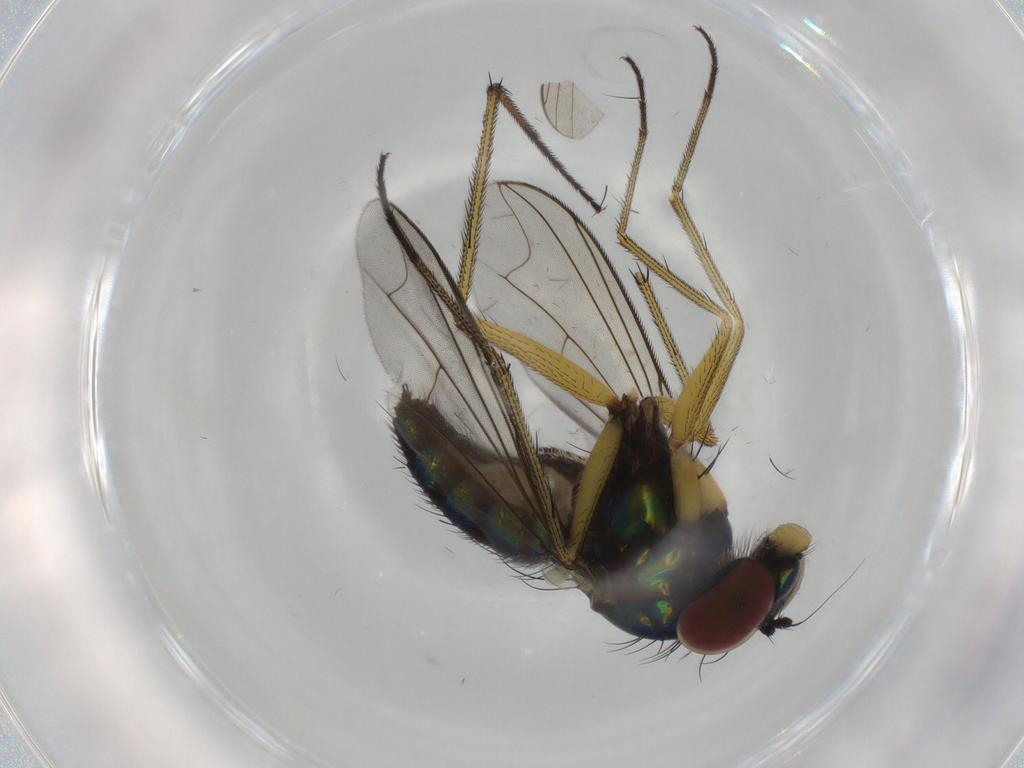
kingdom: Animalia
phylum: Arthropoda
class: Insecta
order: Diptera
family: Dolichopodidae
